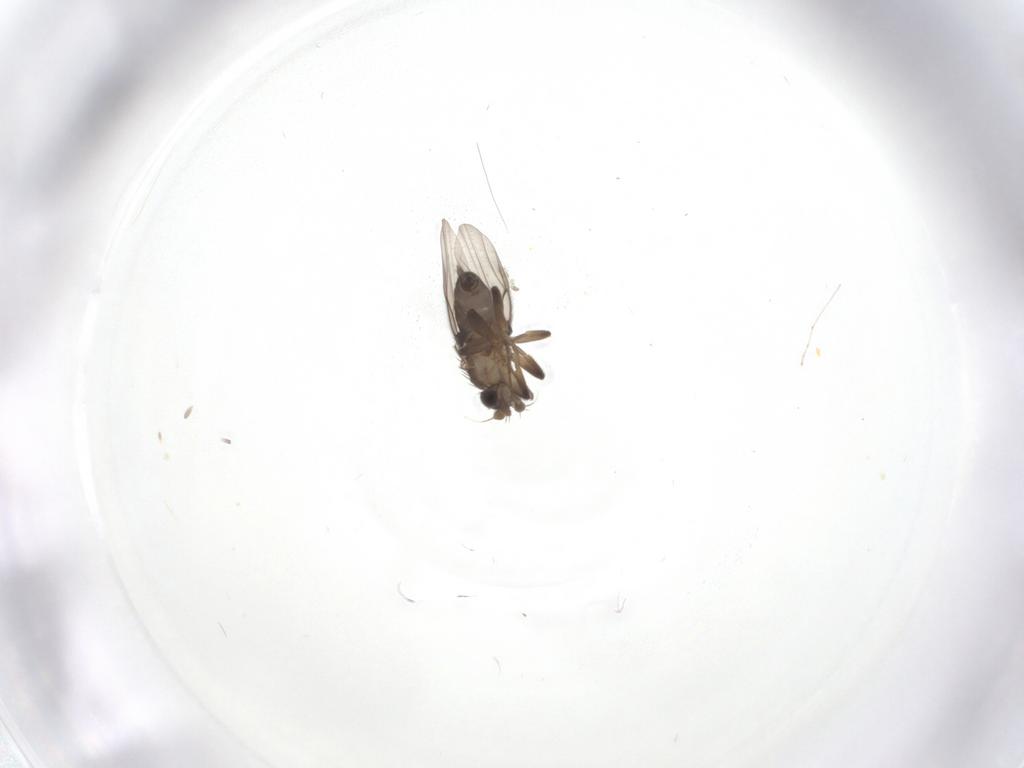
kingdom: Animalia
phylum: Arthropoda
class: Insecta
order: Diptera
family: Phoridae
